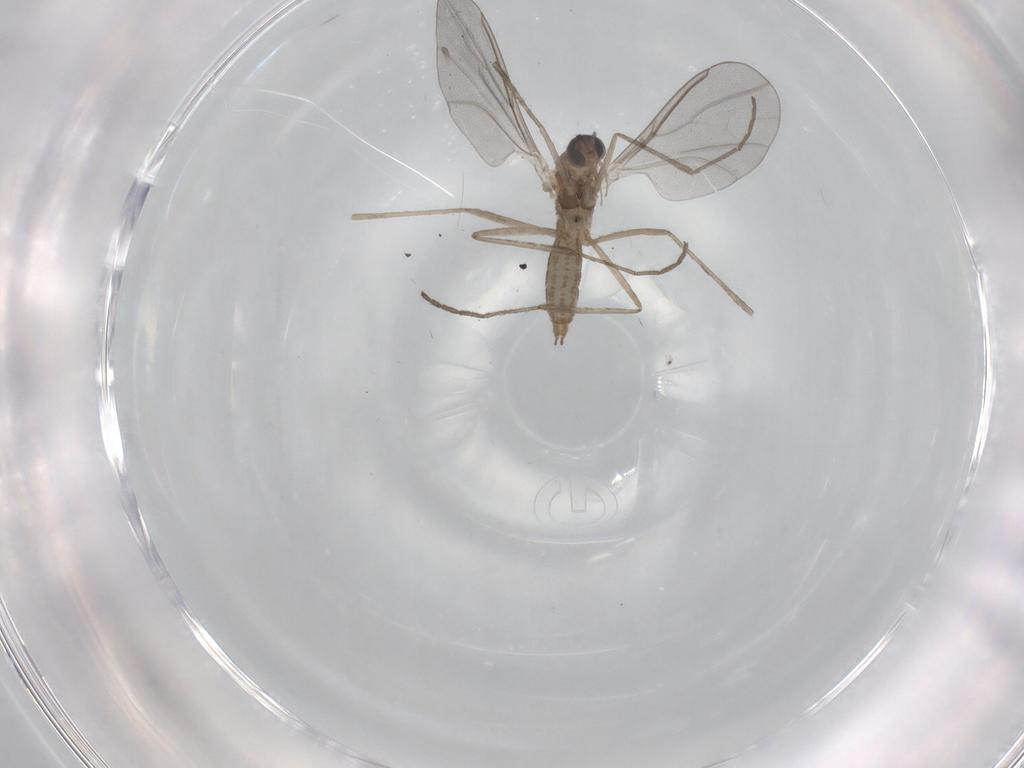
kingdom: Animalia
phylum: Arthropoda
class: Insecta
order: Diptera
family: Cecidomyiidae
